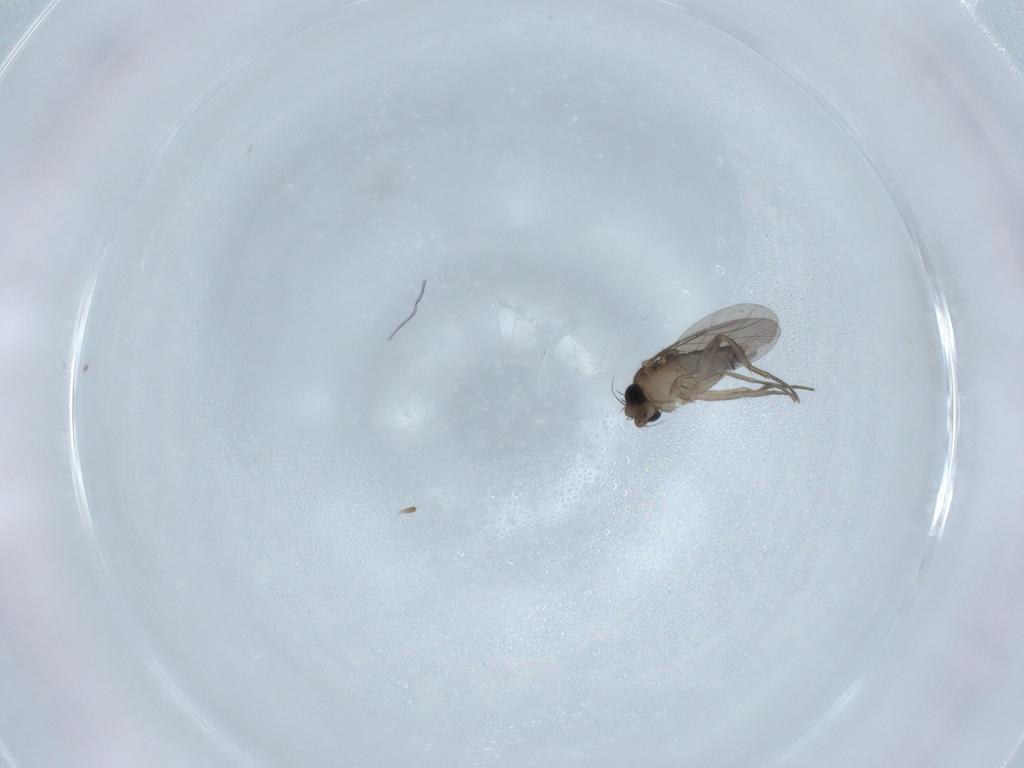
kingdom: Animalia
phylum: Arthropoda
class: Insecta
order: Diptera
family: Phoridae
